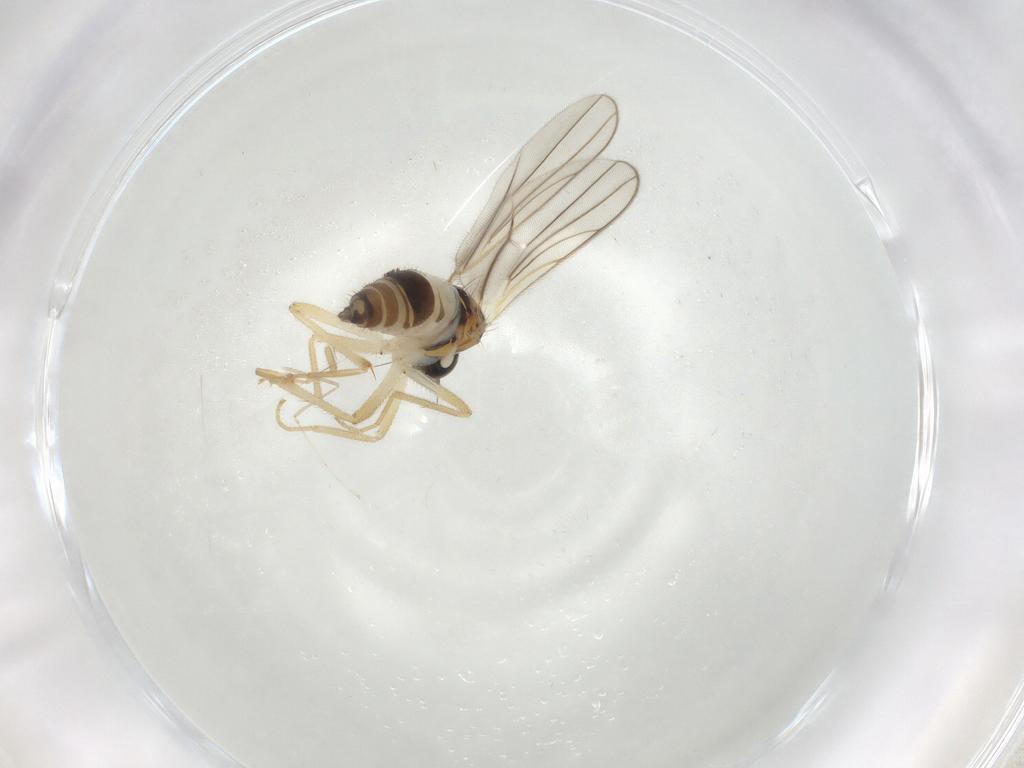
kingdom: Animalia
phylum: Arthropoda
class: Insecta
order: Diptera
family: Hybotidae
